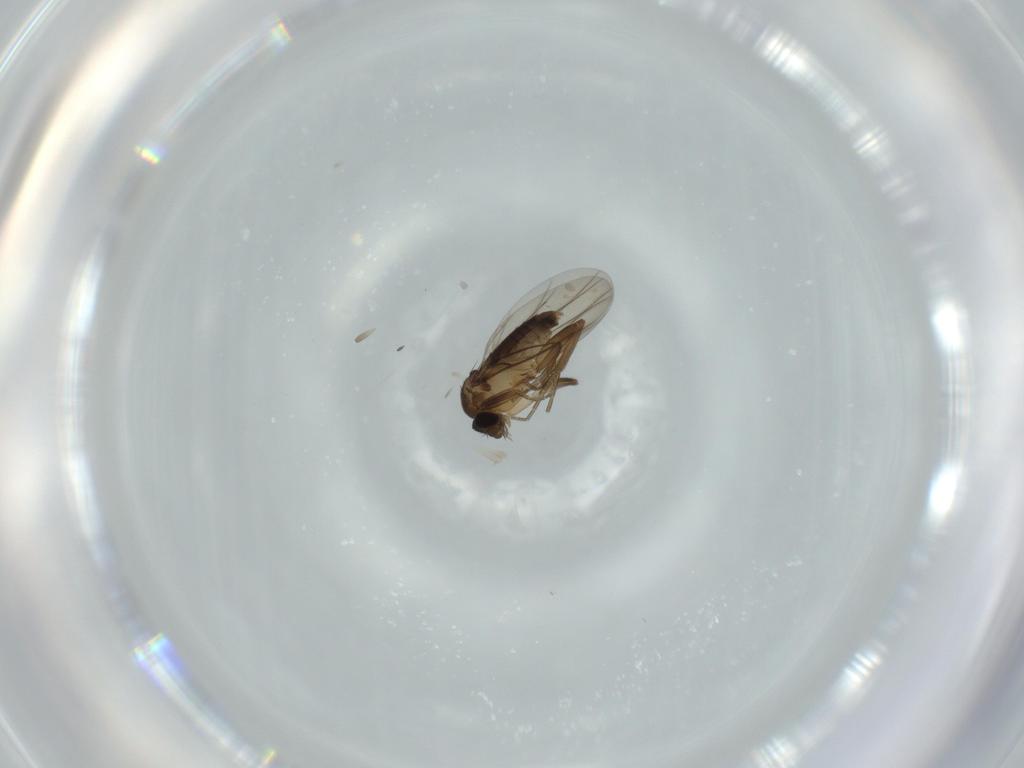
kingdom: Animalia
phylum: Arthropoda
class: Insecta
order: Diptera
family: Phoridae
